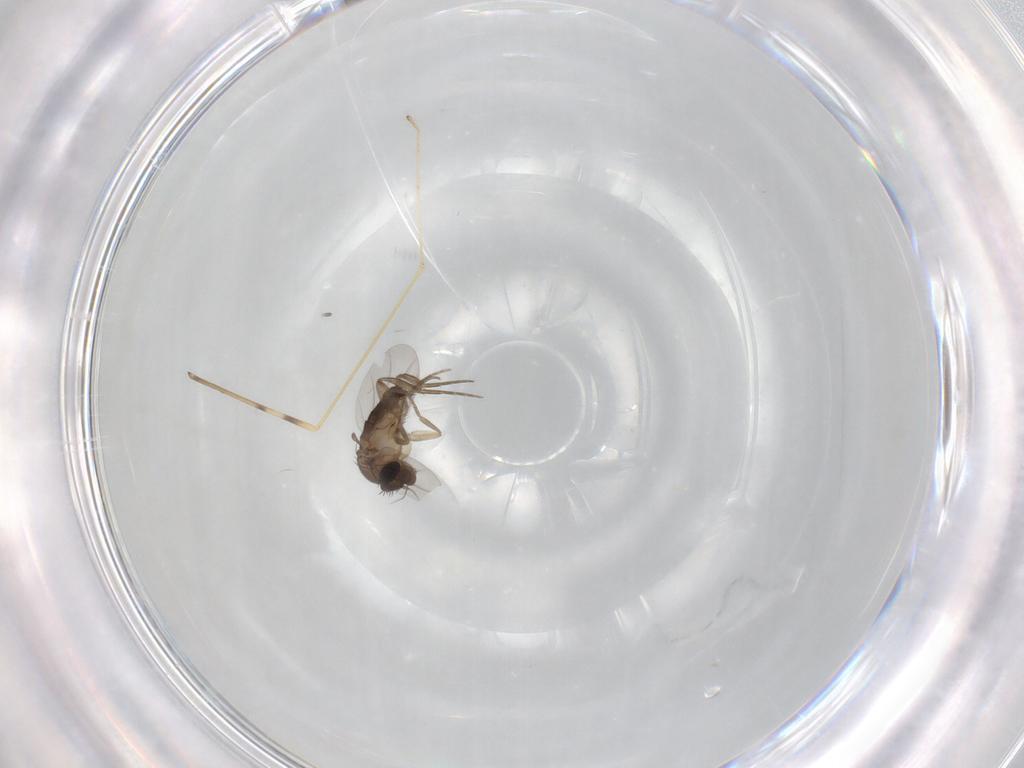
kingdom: Animalia
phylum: Arthropoda
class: Insecta
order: Diptera
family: Phoridae
